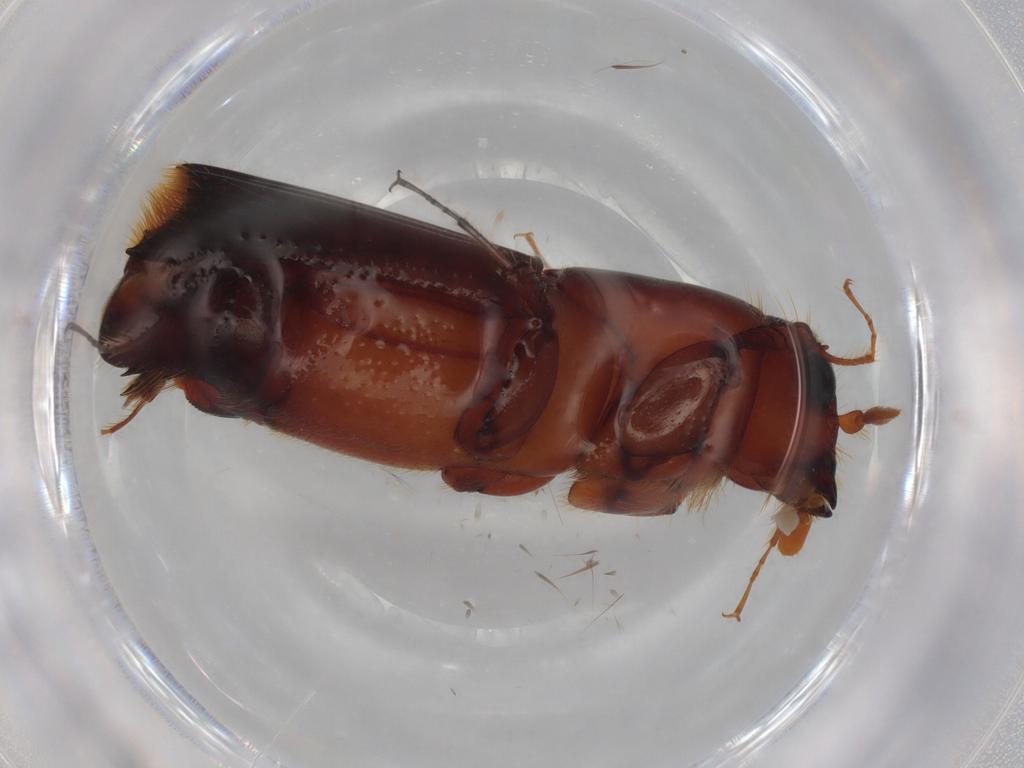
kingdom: Animalia
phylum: Arthropoda
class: Insecta
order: Coleoptera
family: Curculionidae
